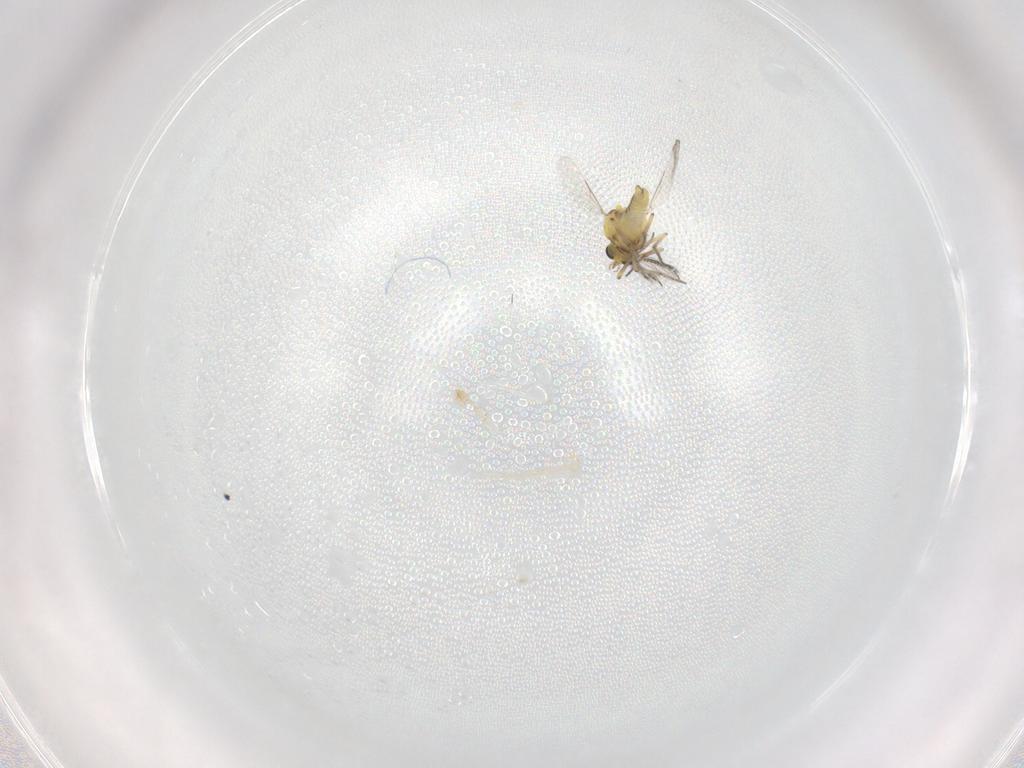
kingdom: Animalia
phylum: Arthropoda
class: Insecta
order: Diptera
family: Ceratopogonidae
